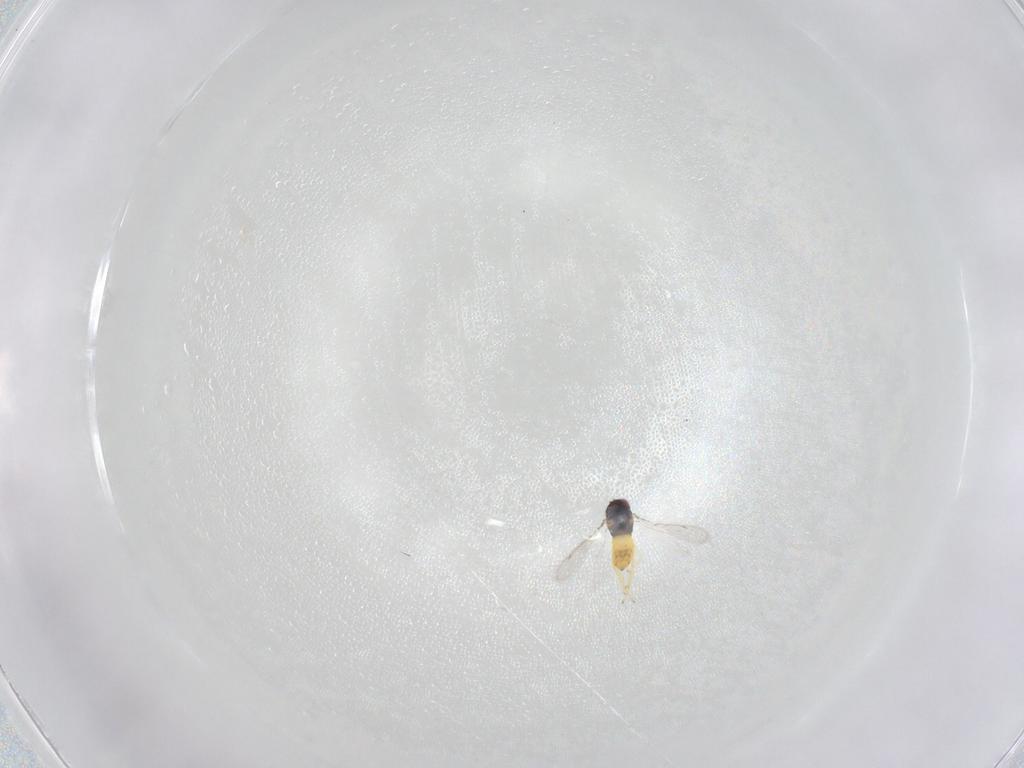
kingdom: Animalia
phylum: Arthropoda
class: Insecta
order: Hymenoptera
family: Eulophidae
